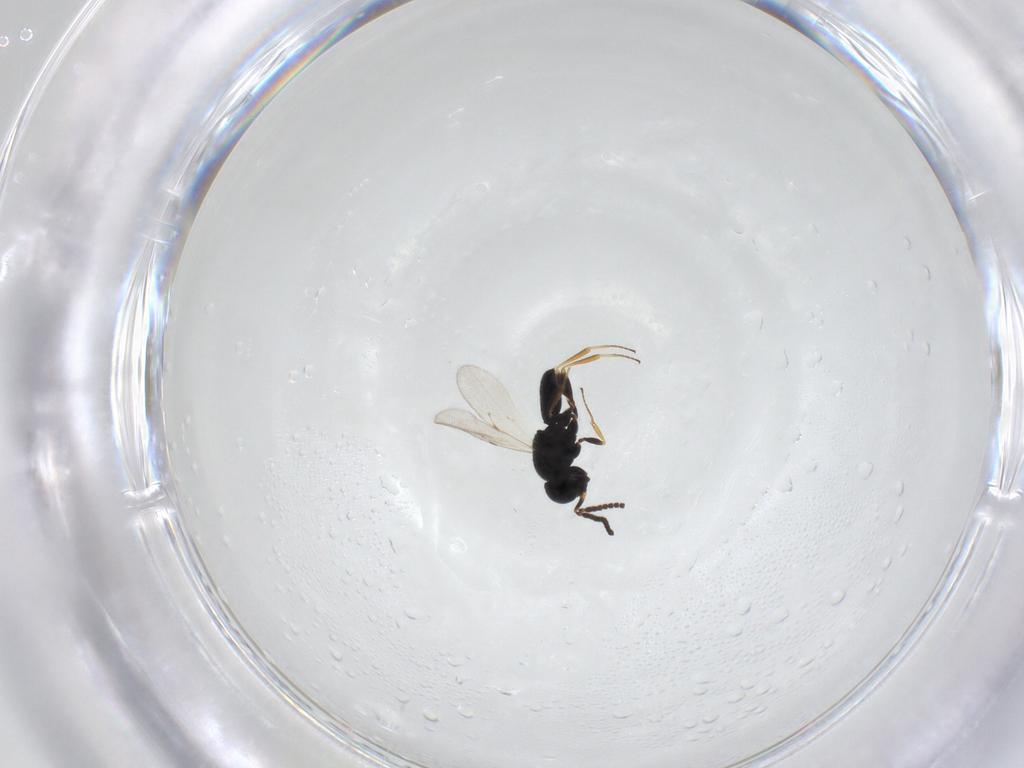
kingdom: Animalia
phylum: Arthropoda
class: Insecta
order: Hymenoptera
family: Scelionidae
